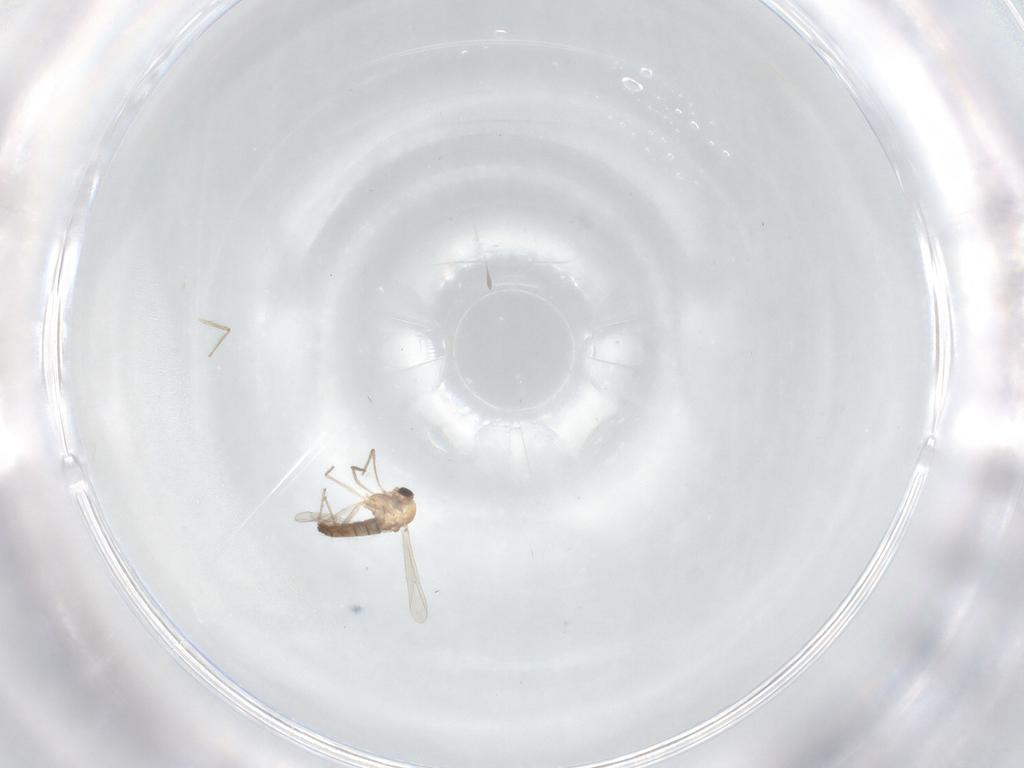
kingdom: Animalia
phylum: Arthropoda
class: Insecta
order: Diptera
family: Chironomidae
